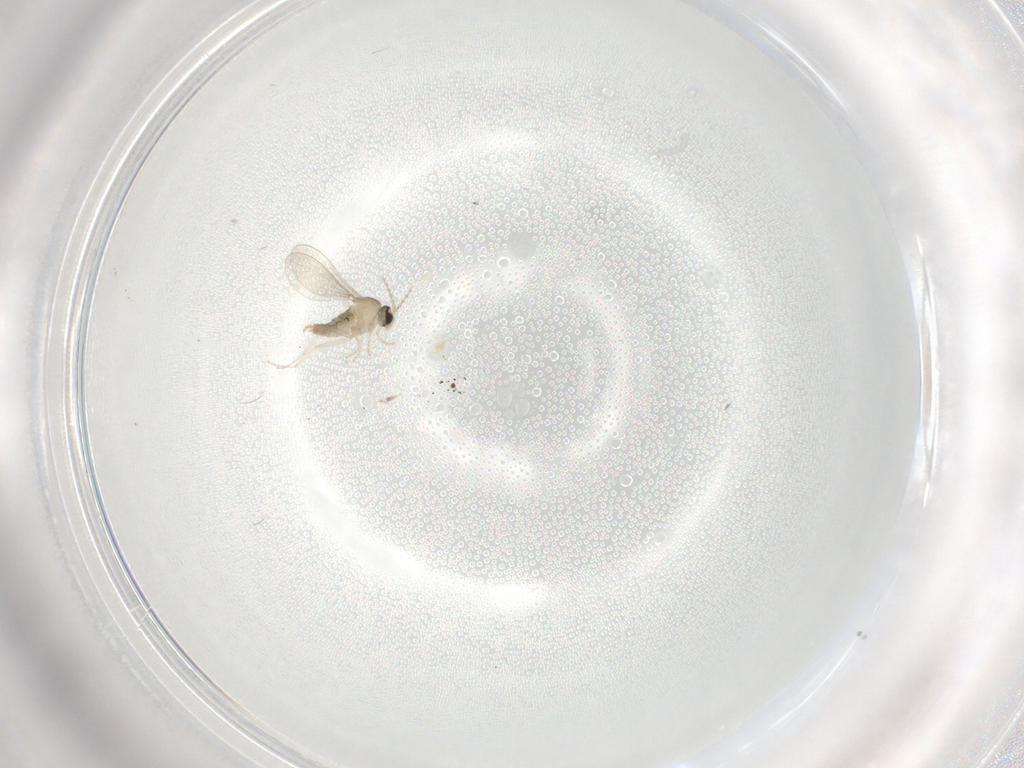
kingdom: Animalia
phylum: Arthropoda
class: Insecta
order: Diptera
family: Cecidomyiidae
